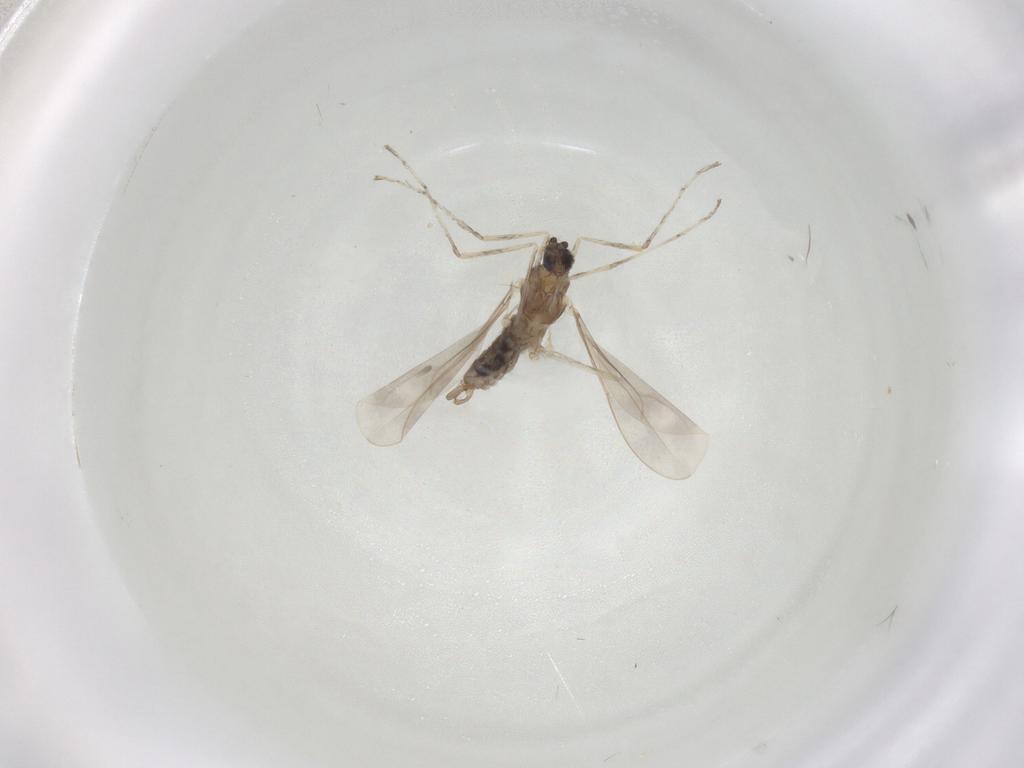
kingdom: Animalia
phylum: Arthropoda
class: Insecta
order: Diptera
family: Cecidomyiidae
